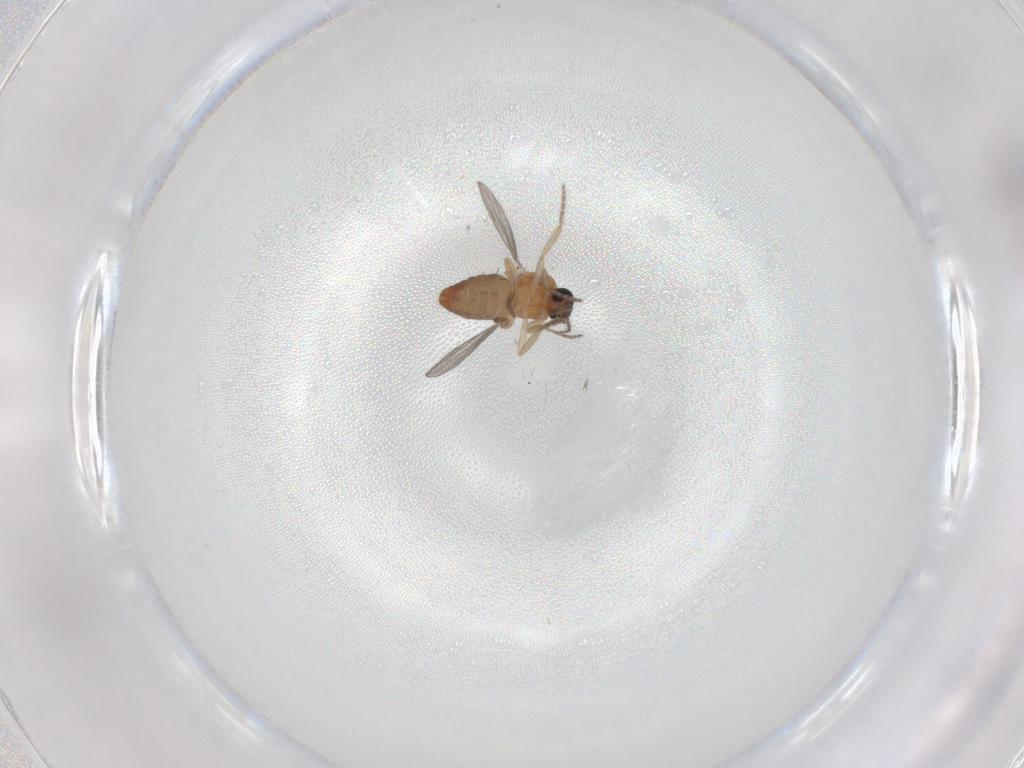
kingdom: Animalia
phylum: Arthropoda
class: Insecta
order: Diptera
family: Ceratopogonidae
